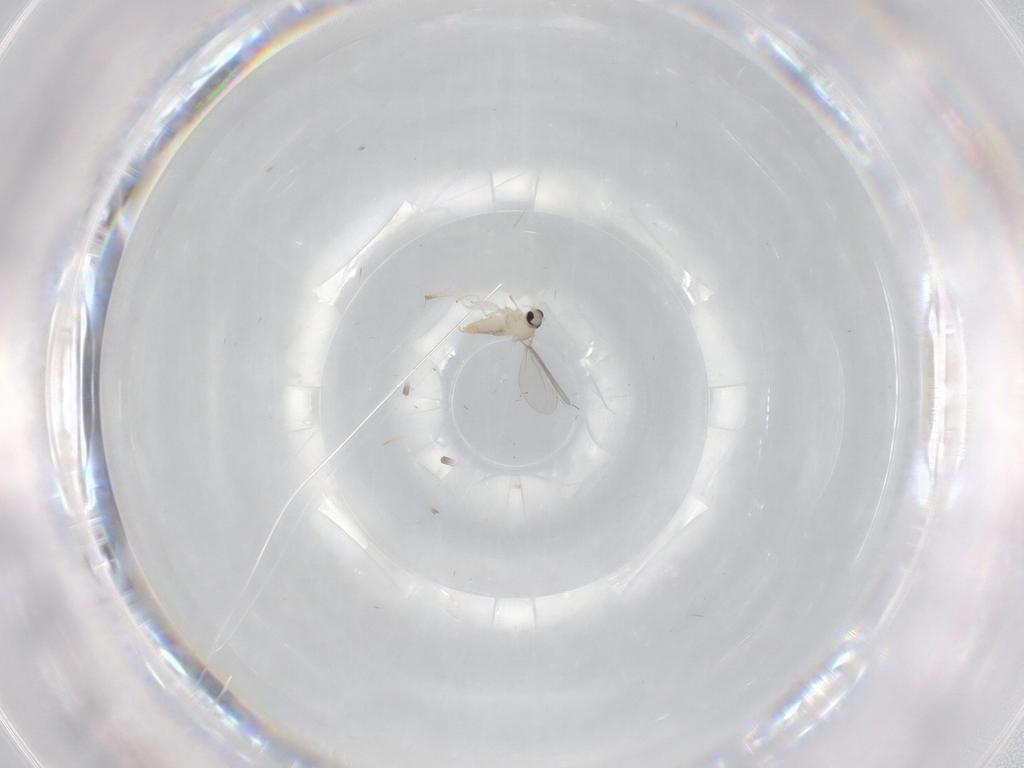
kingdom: Animalia
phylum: Arthropoda
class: Insecta
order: Diptera
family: Cecidomyiidae
